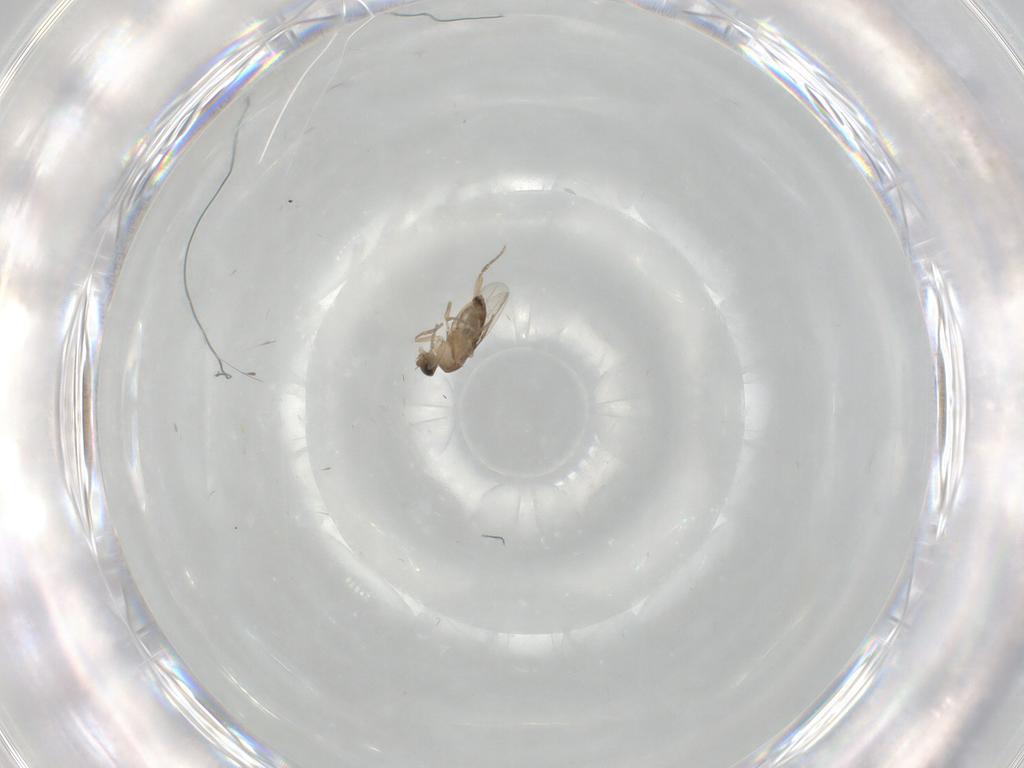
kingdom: Animalia
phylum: Arthropoda
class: Insecta
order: Diptera
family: Phoridae
